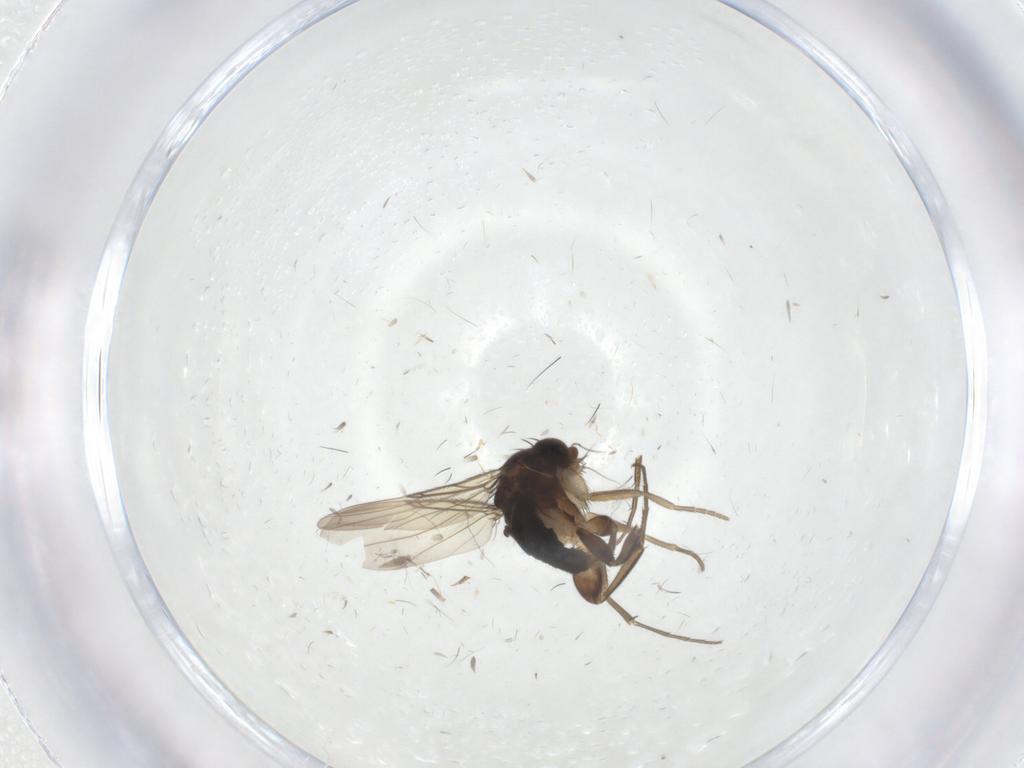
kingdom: Animalia
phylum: Arthropoda
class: Insecta
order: Diptera
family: Phoridae
